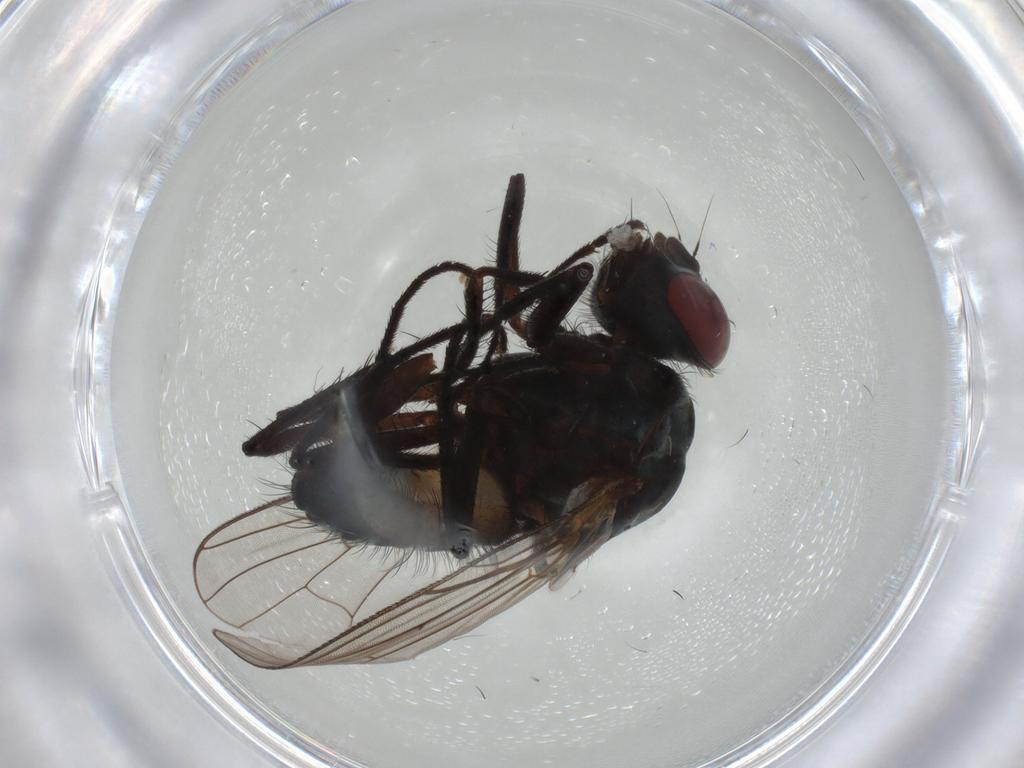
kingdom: Animalia
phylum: Arthropoda
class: Insecta
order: Diptera
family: Anthomyiidae
